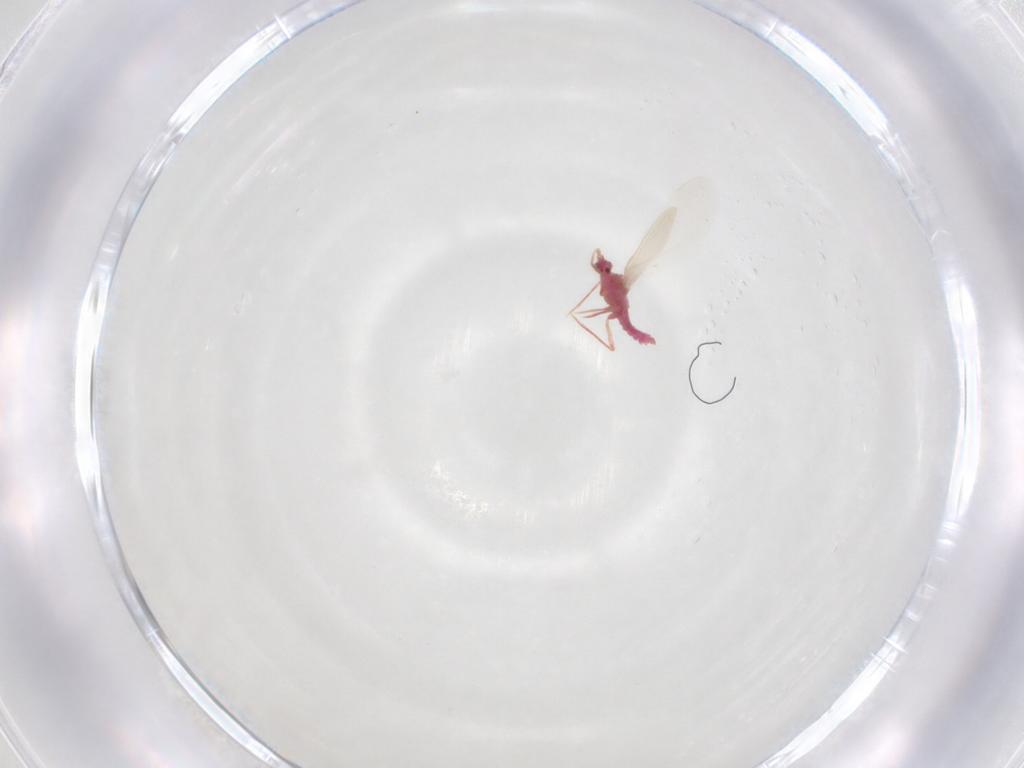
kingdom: Animalia
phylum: Arthropoda
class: Insecta
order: Hemiptera
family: Pseudococcidae
